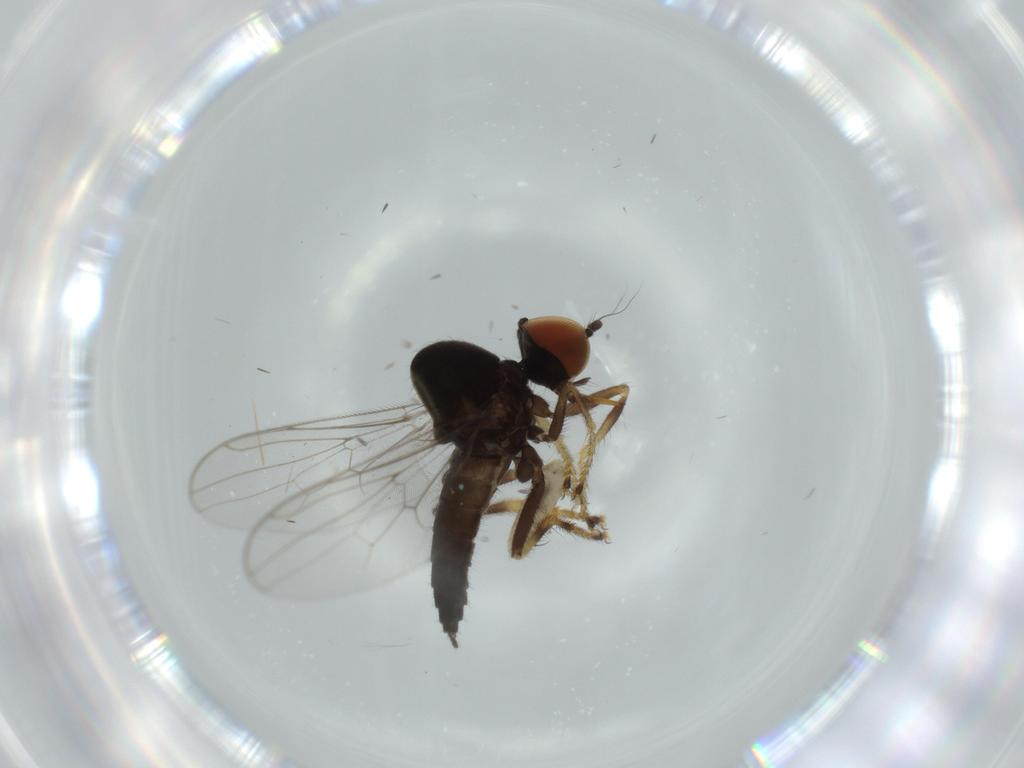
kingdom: Animalia
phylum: Arthropoda
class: Insecta
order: Diptera
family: Hybotidae
